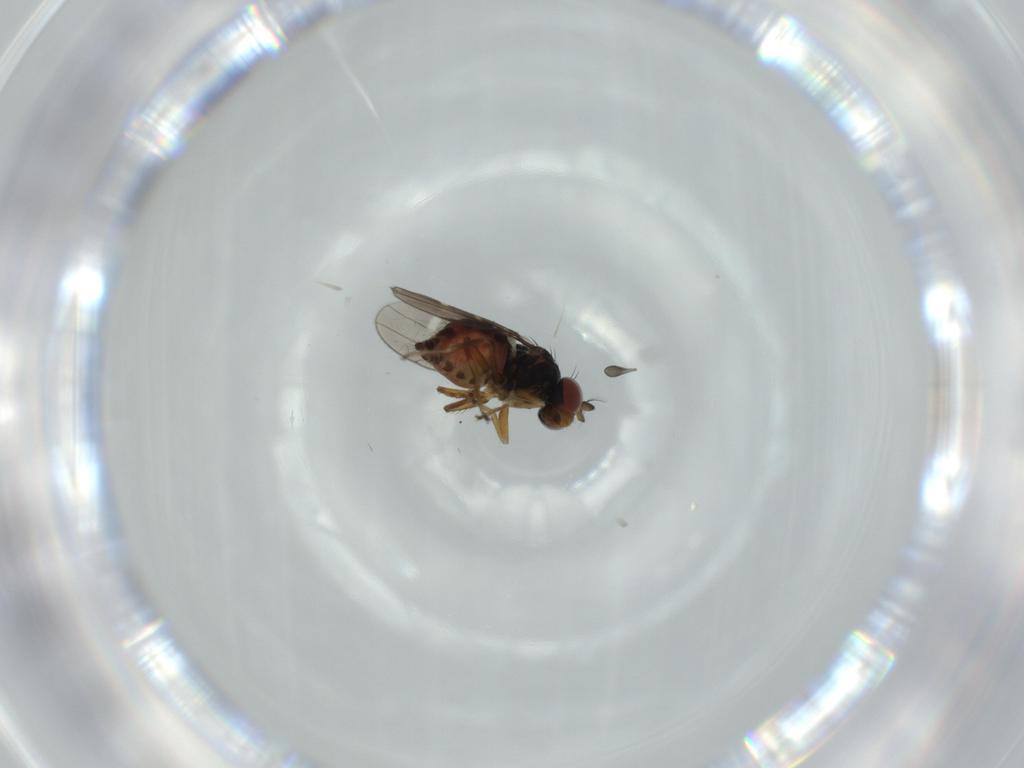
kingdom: Animalia
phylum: Arthropoda
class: Insecta
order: Diptera
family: Ephydridae
